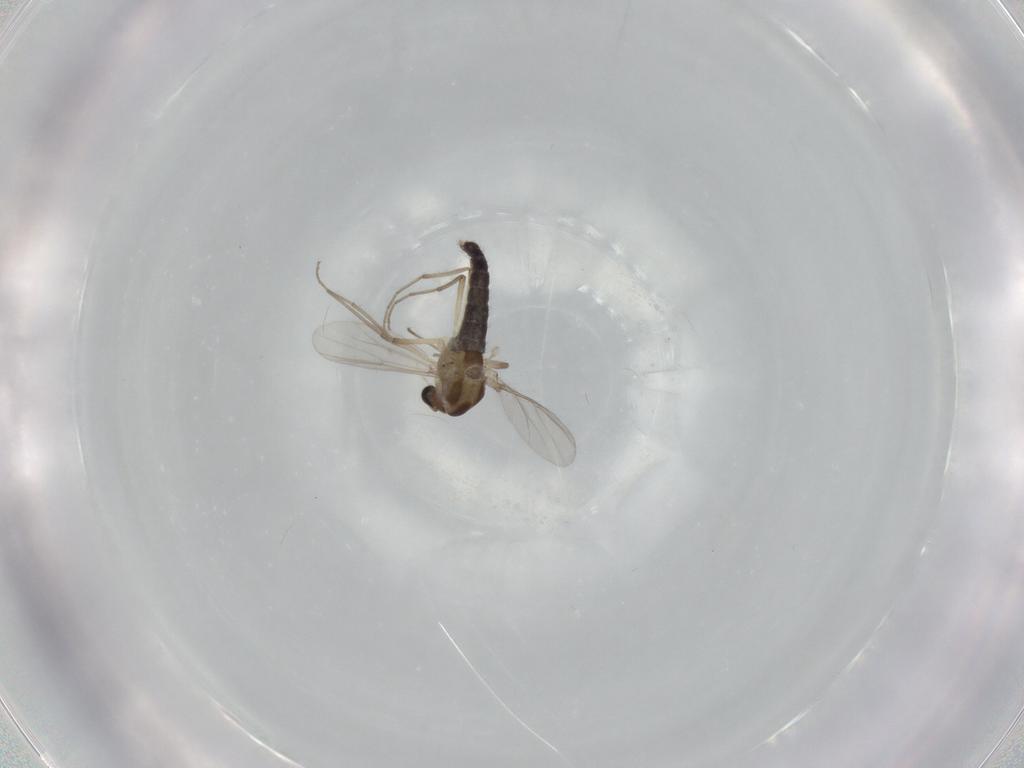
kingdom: Animalia
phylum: Arthropoda
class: Insecta
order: Diptera
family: Chironomidae
